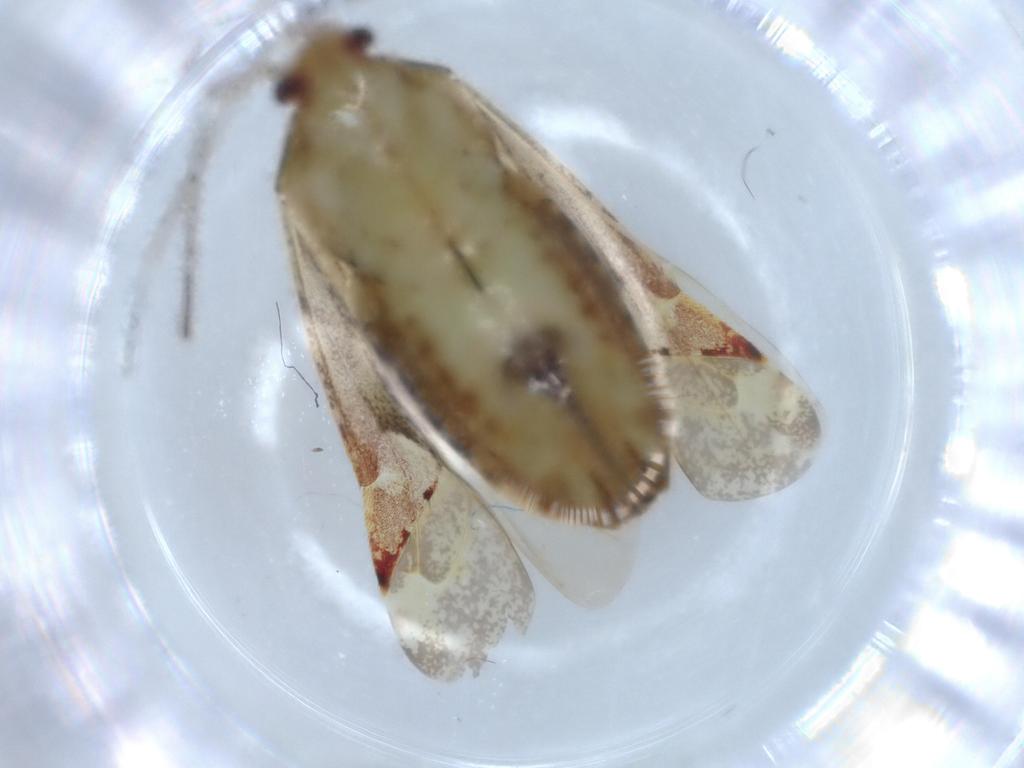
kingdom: Animalia
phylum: Arthropoda
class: Insecta
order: Hemiptera
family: Miridae
